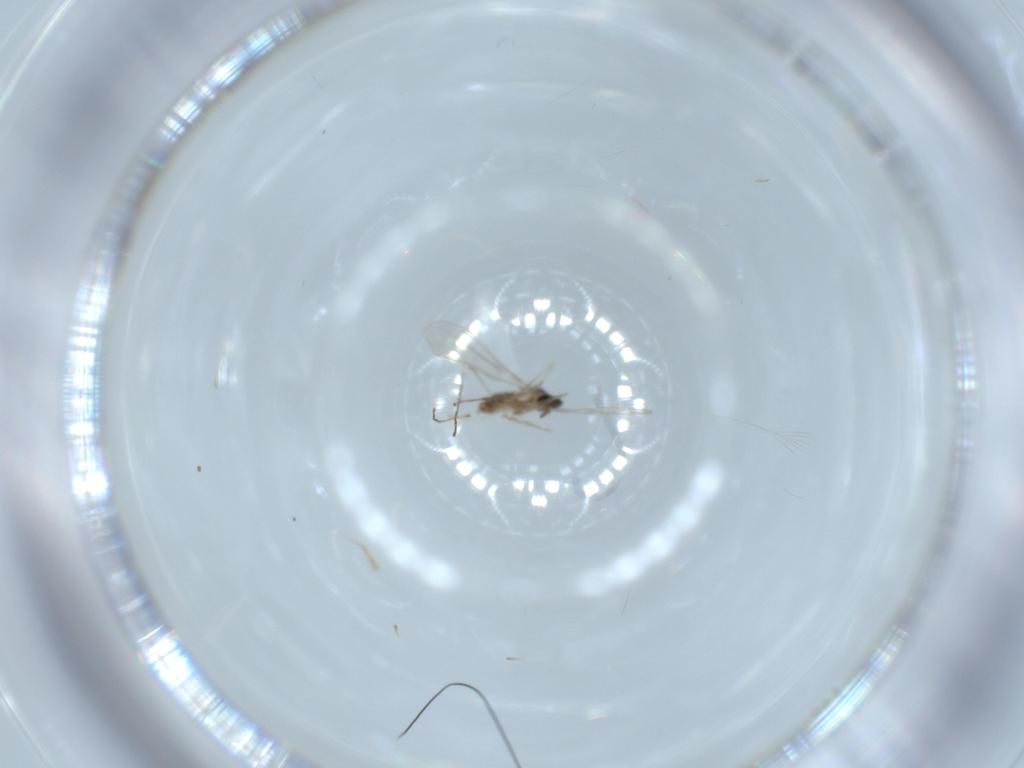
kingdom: Animalia
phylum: Arthropoda
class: Insecta
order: Diptera
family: Cecidomyiidae
